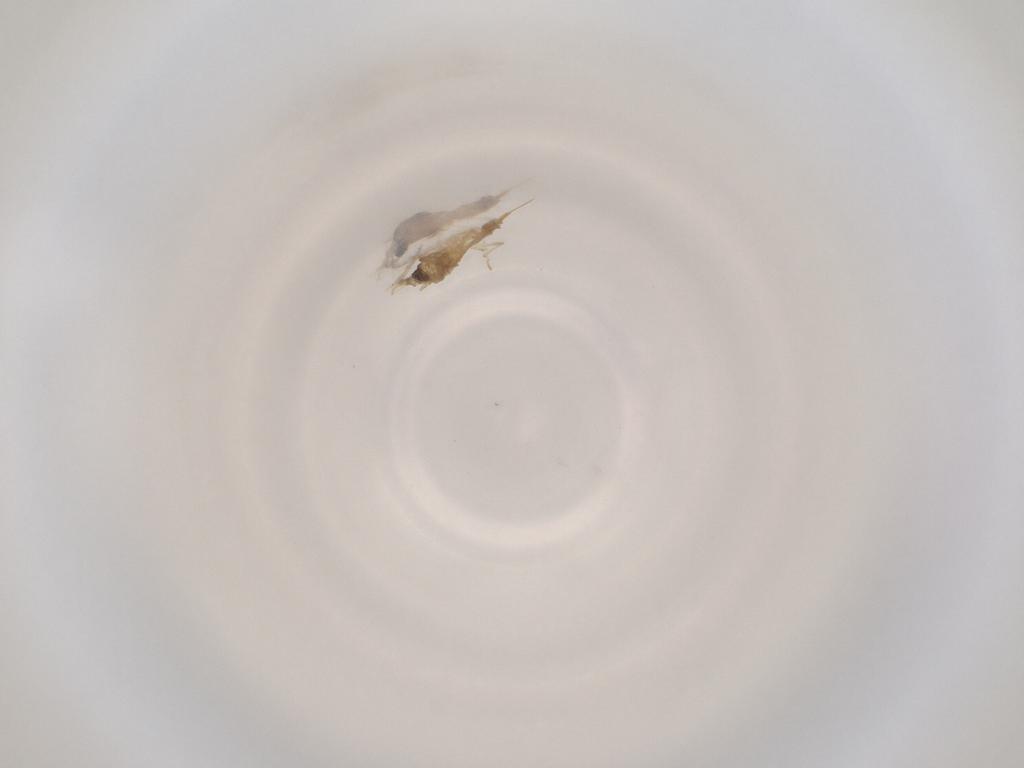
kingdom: Animalia
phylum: Arthropoda
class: Insecta
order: Diptera
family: Cecidomyiidae
